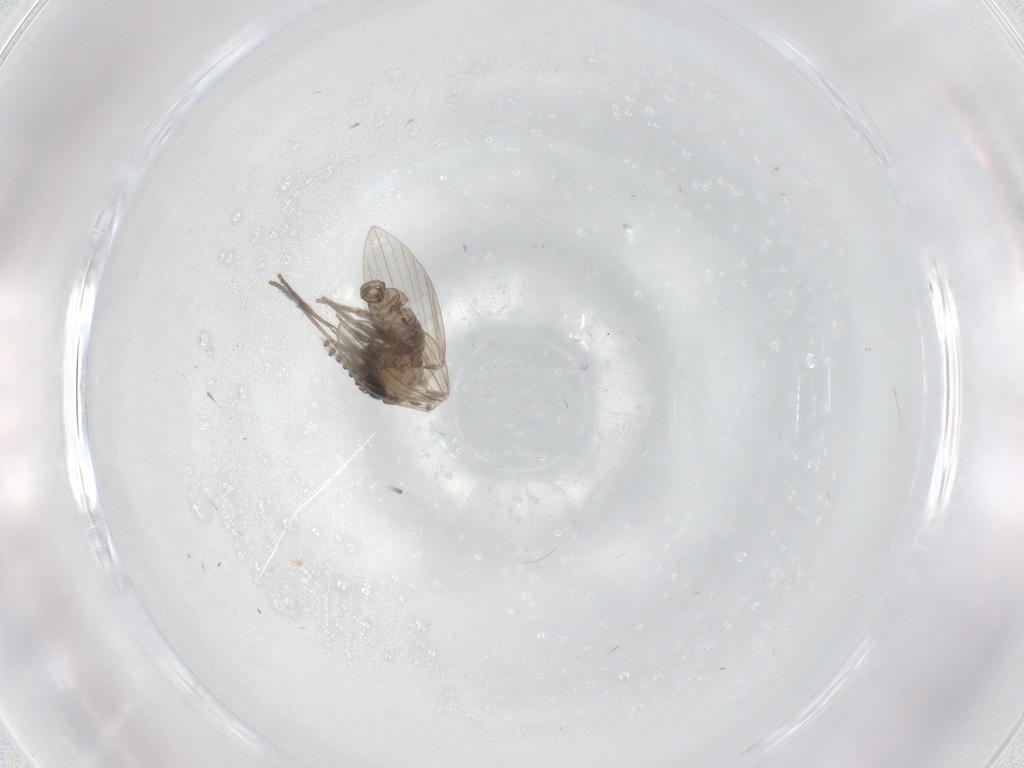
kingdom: Animalia
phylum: Arthropoda
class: Insecta
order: Diptera
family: Psychodidae
